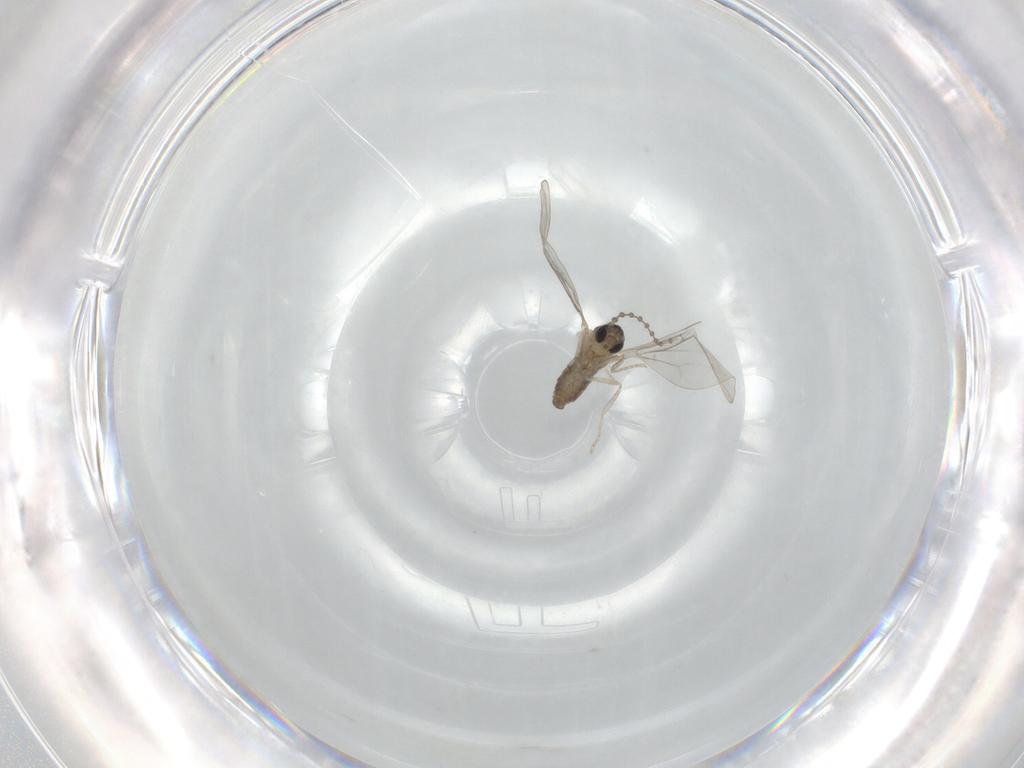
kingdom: Animalia
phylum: Arthropoda
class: Insecta
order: Diptera
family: Cecidomyiidae
